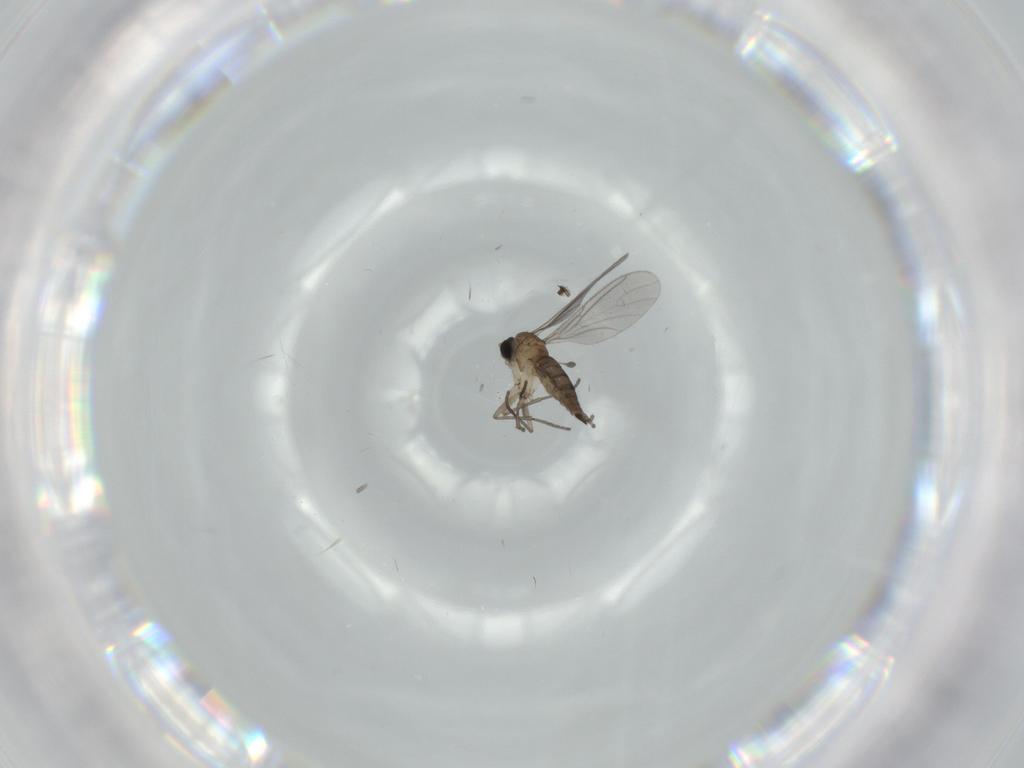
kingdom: Animalia
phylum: Arthropoda
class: Insecta
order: Diptera
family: Sciaridae
